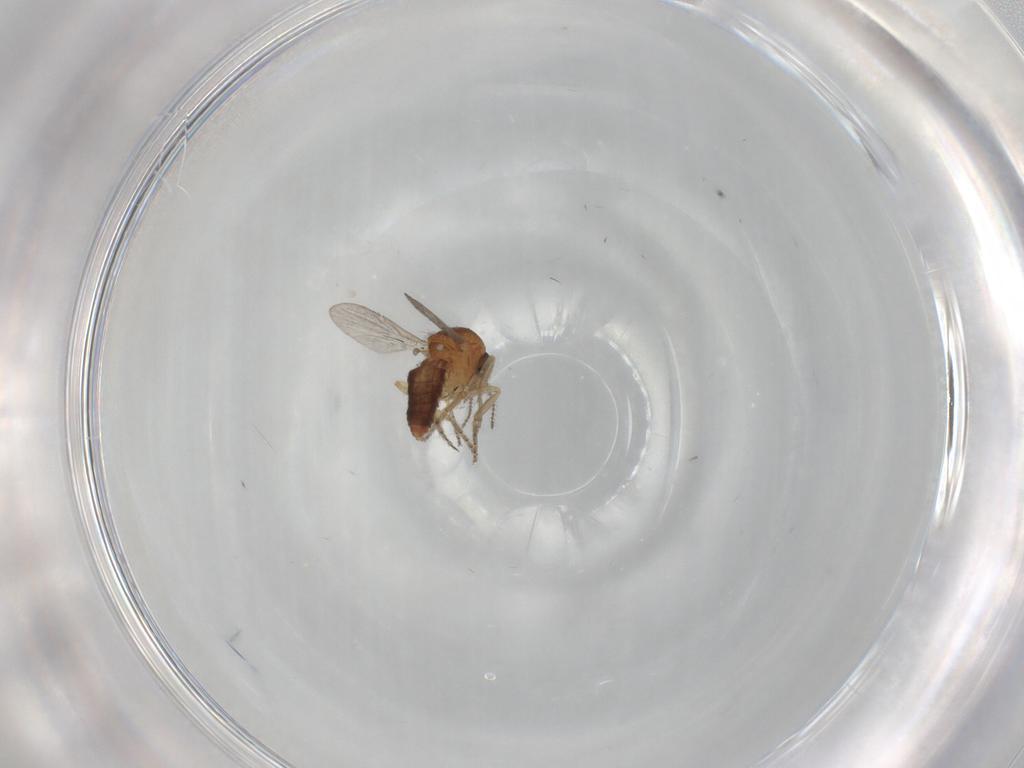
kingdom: Animalia
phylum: Arthropoda
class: Insecta
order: Diptera
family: Ceratopogonidae
